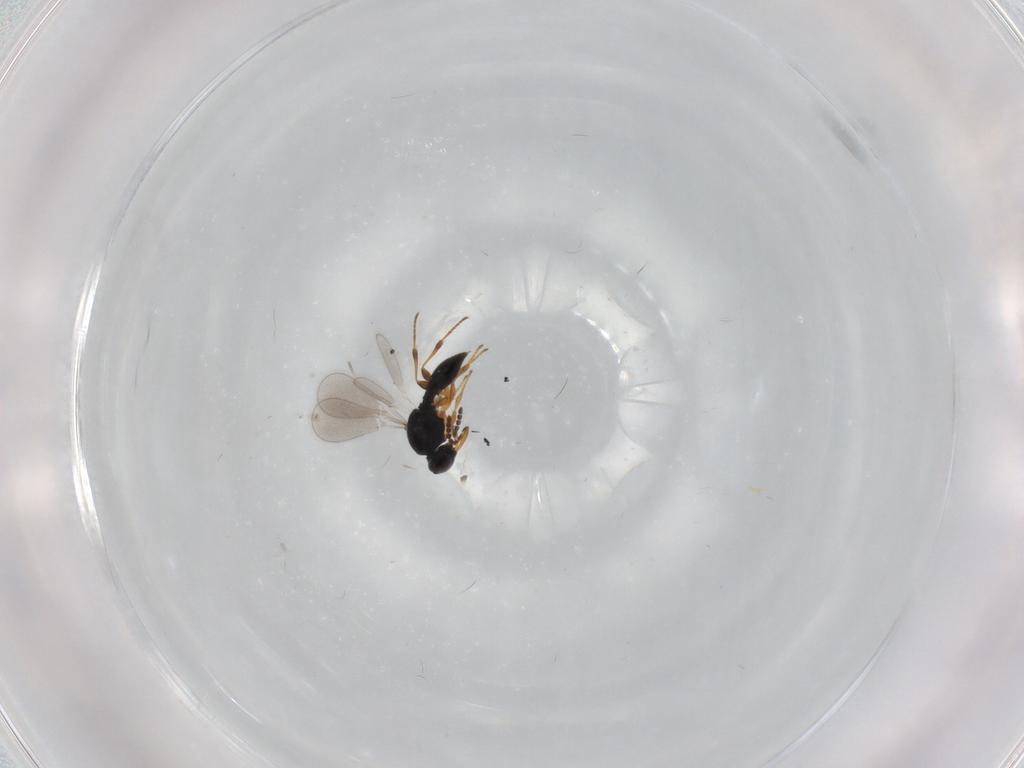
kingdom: Animalia
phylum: Arthropoda
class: Insecta
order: Hymenoptera
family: Platygastridae
